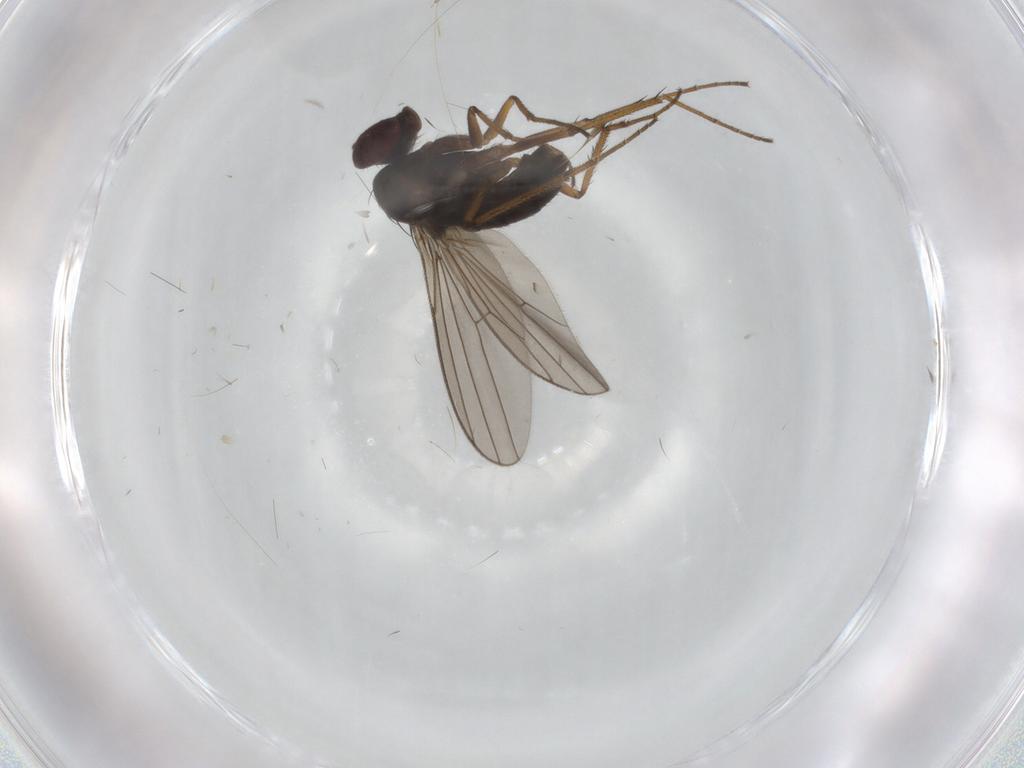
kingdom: Animalia
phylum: Arthropoda
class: Insecta
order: Diptera
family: Dolichopodidae
